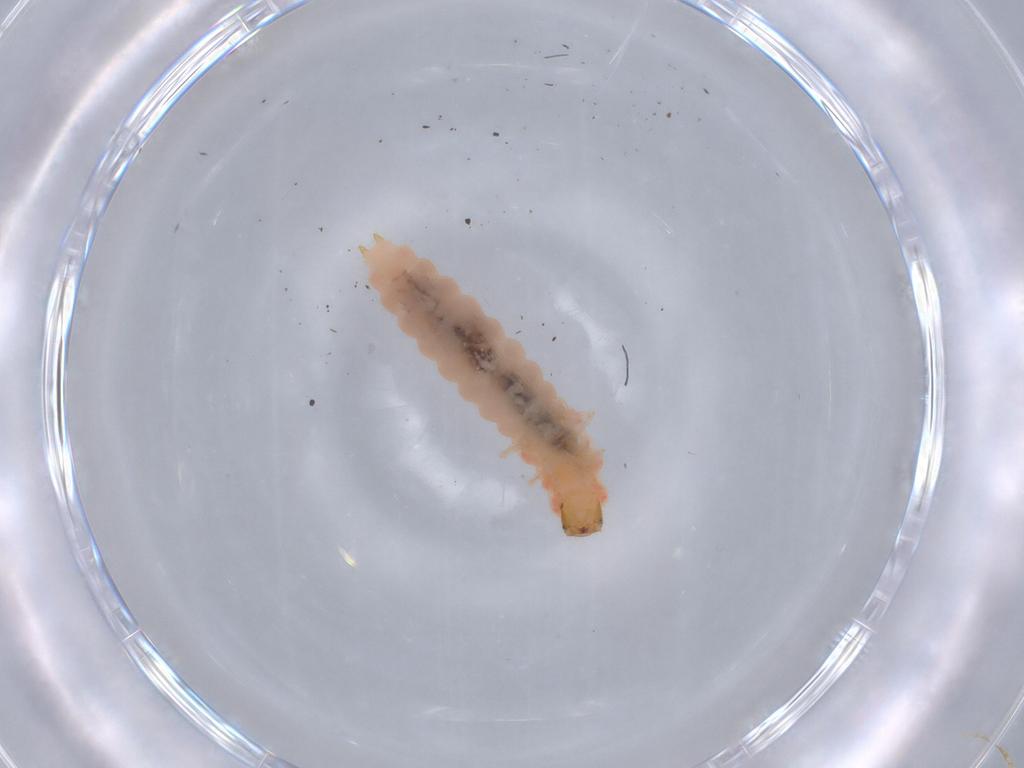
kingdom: Animalia
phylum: Arthropoda
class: Insecta
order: Coleoptera
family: Melyridae
